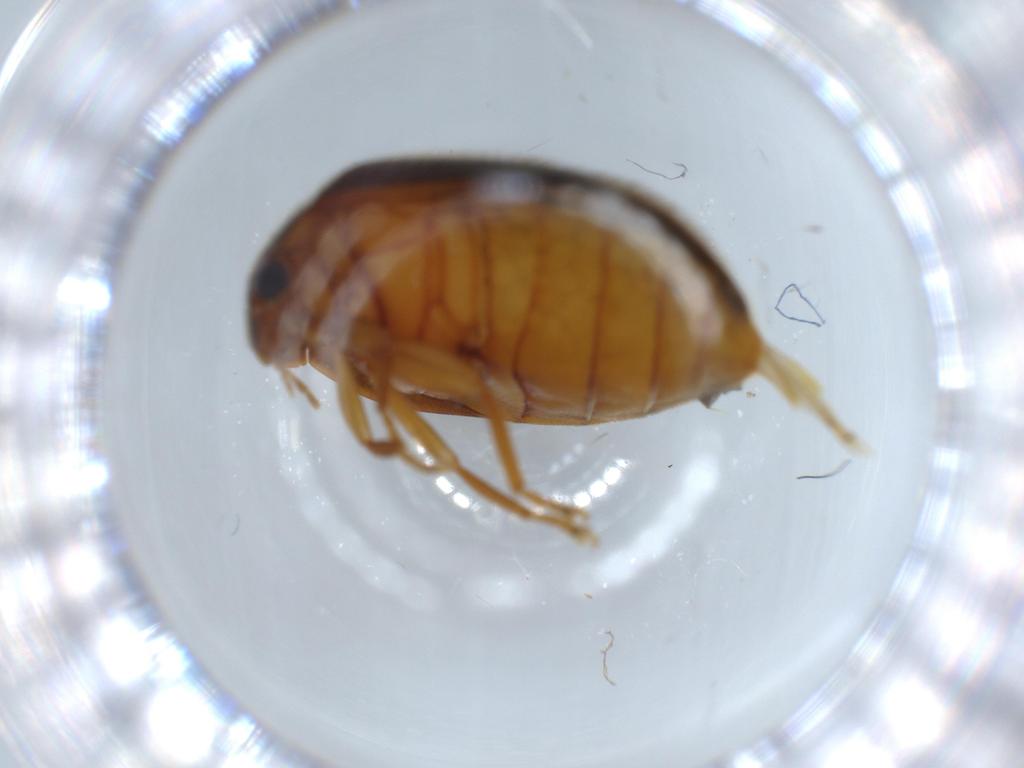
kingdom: Animalia
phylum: Arthropoda
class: Insecta
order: Coleoptera
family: Scirtidae
